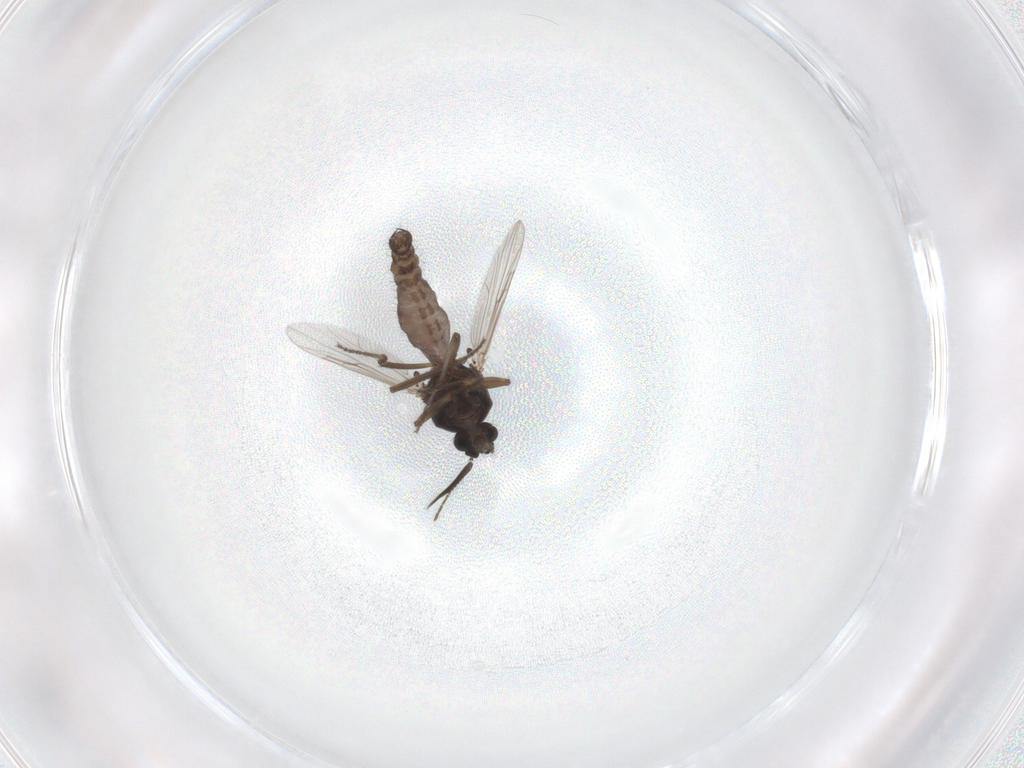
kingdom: Animalia
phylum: Arthropoda
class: Insecta
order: Diptera
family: Ceratopogonidae
